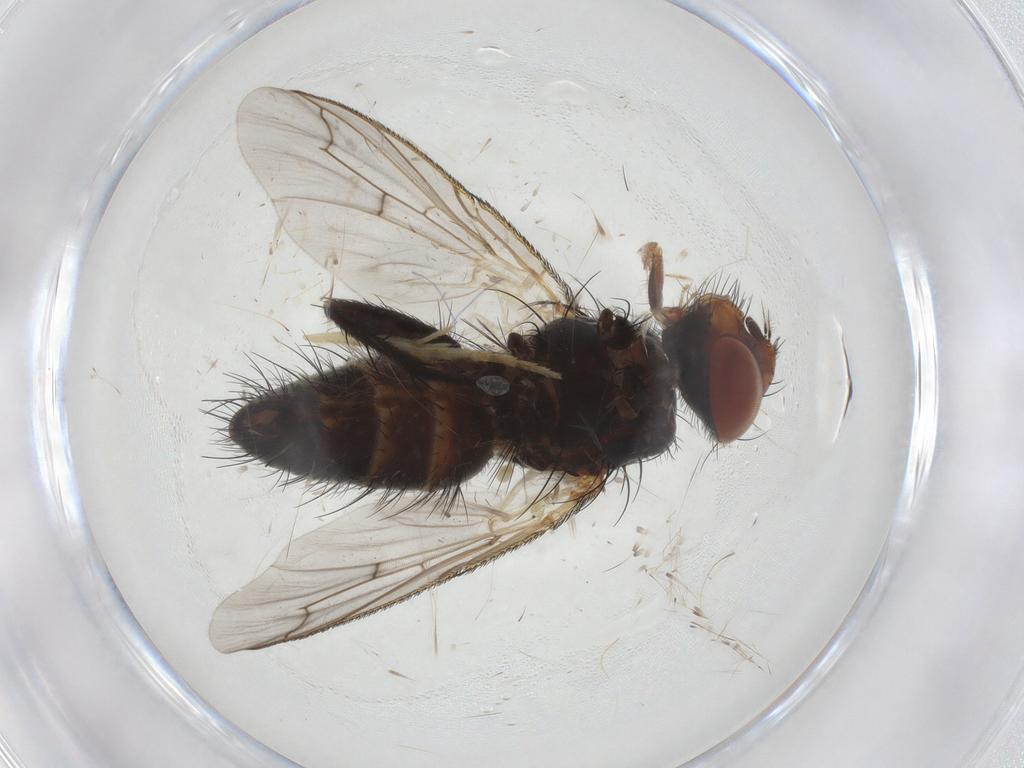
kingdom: Animalia
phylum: Arthropoda
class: Insecta
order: Diptera
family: Tachinidae
